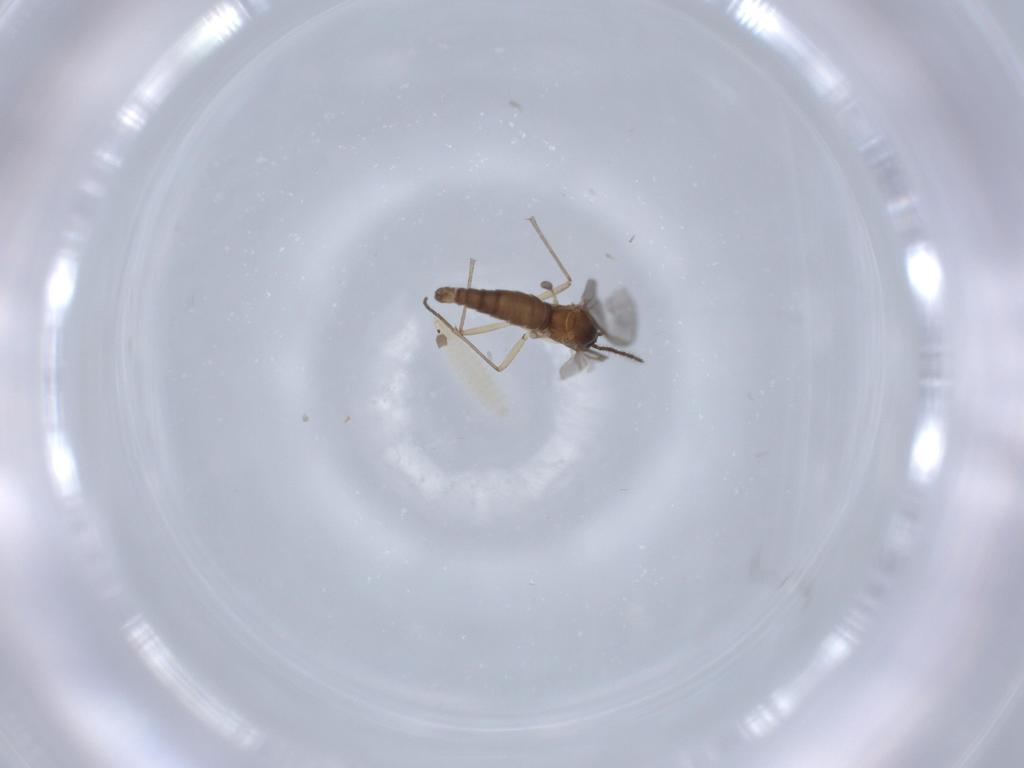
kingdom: Animalia
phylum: Arthropoda
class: Insecta
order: Diptera
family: Sciaridae
